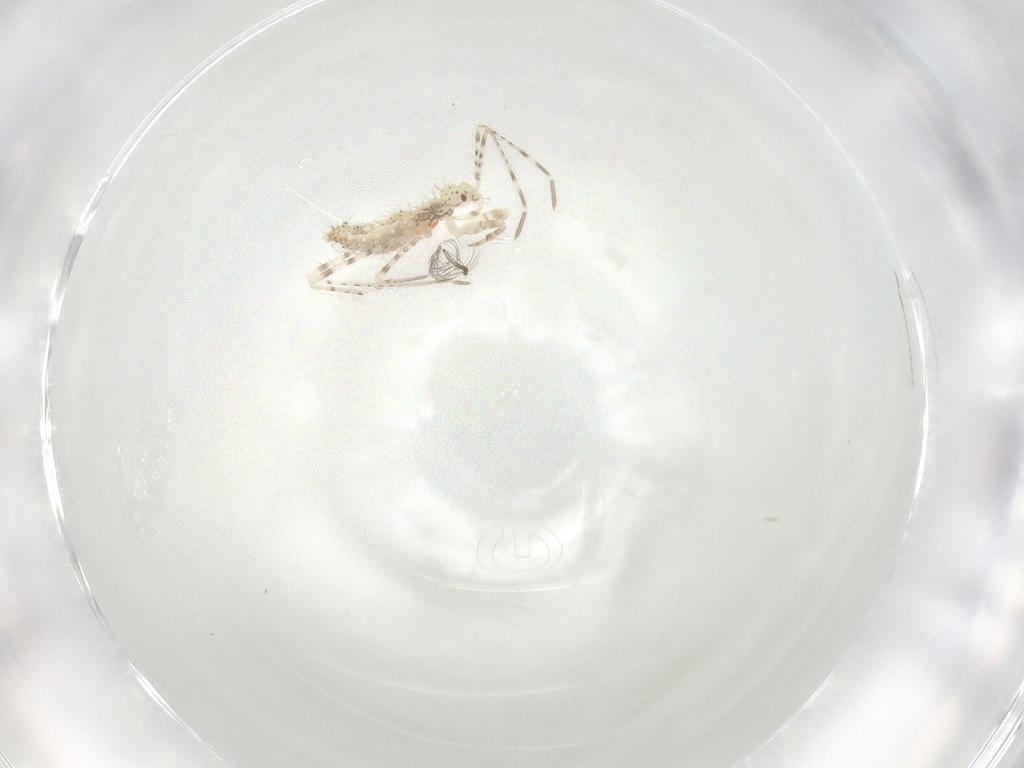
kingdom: Animalia
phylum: Arthropoda
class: Insecta
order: Hemiptera
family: Reduviidae
